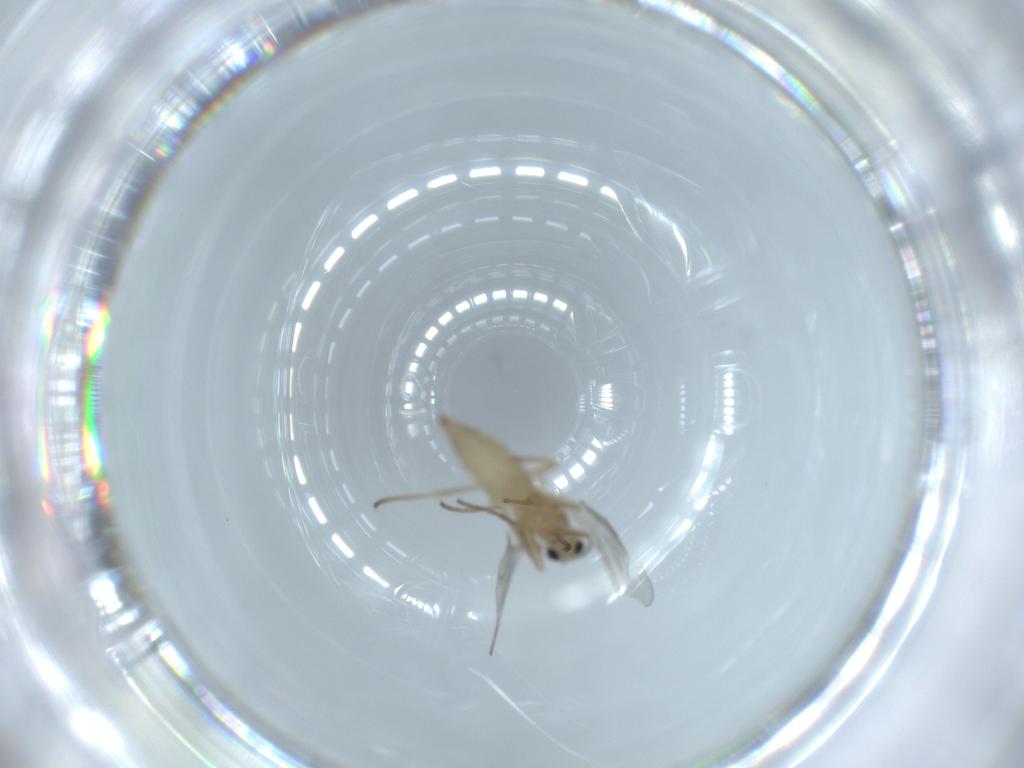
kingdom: Animalia
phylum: Arthropoda
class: Insecta
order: Diptera
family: Cecidomyiidae
